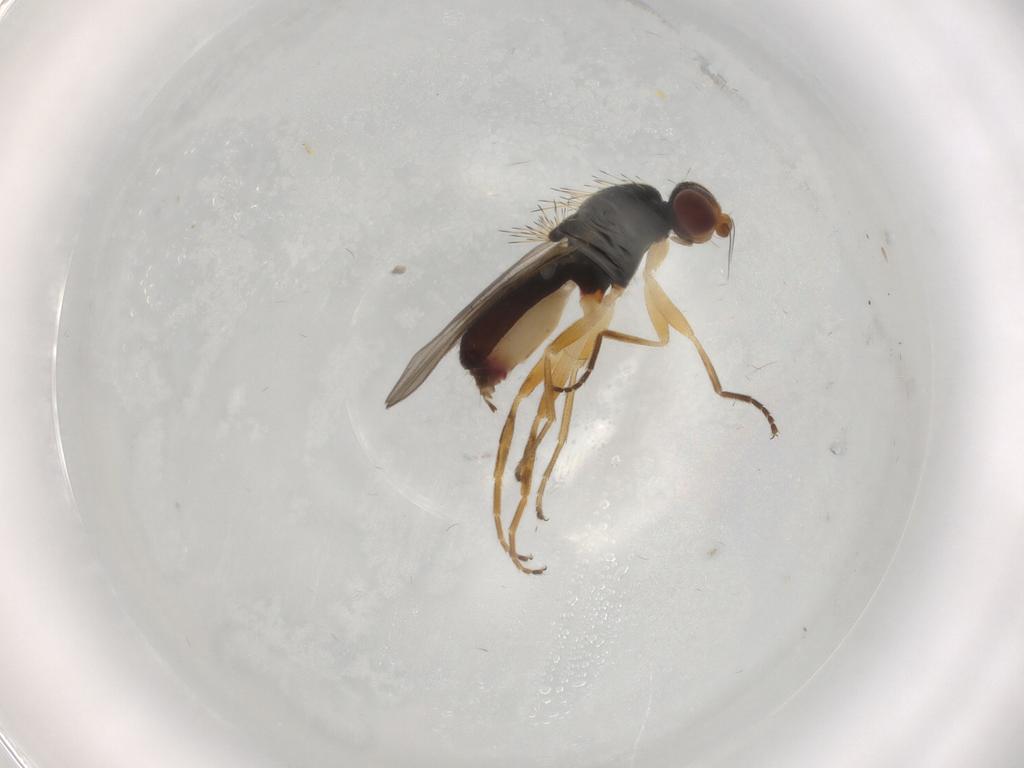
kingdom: Animalia
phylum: Arthropoda
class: Insecta
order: Diptera
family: Chloropidae
